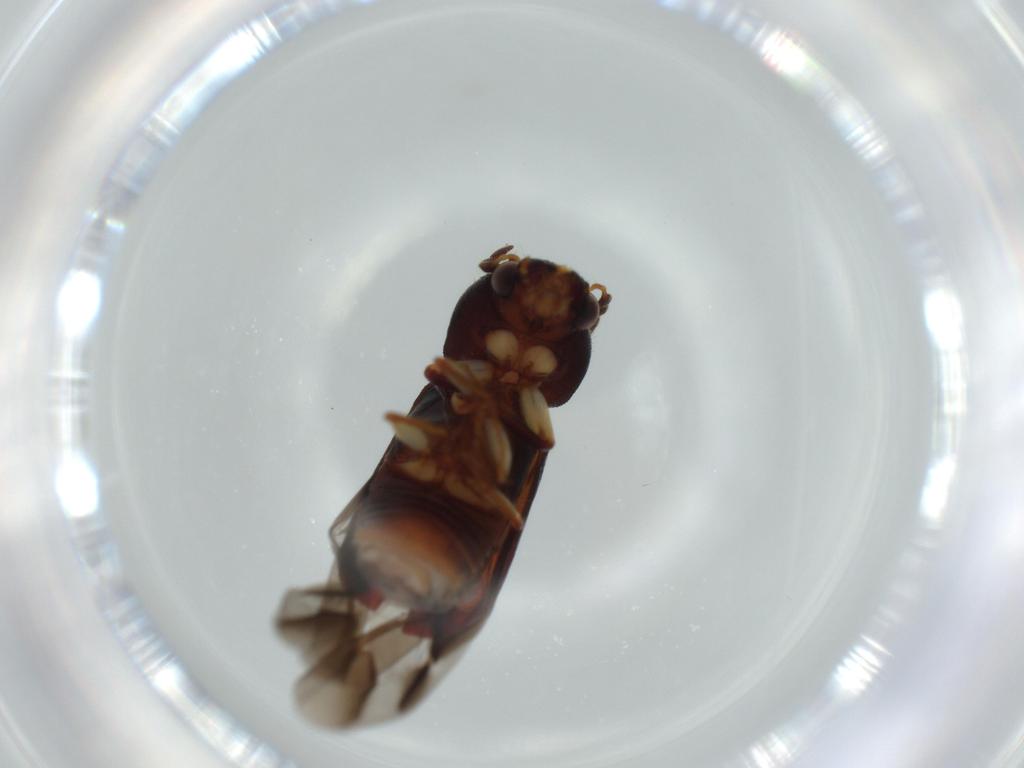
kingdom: Animalia
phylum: Arthropoda
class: Insecta
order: Coleoptera
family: Bostrichidae
